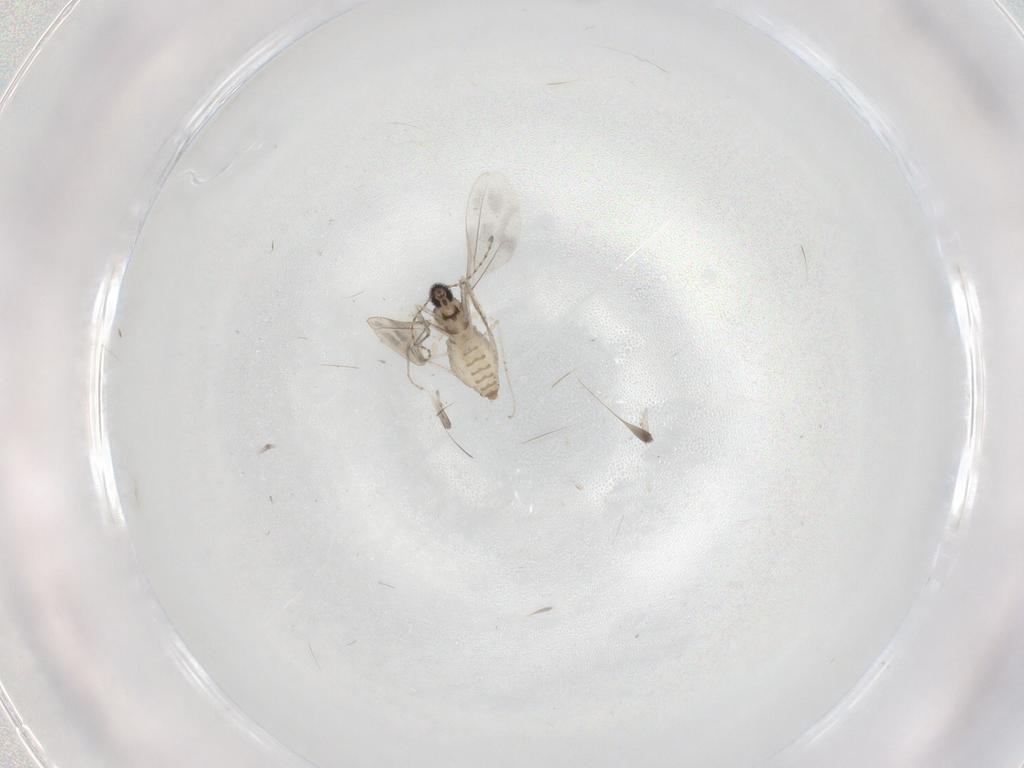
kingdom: Animalia
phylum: Arthropoda
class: Insecta
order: Diptera
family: Cecidomyiidae
